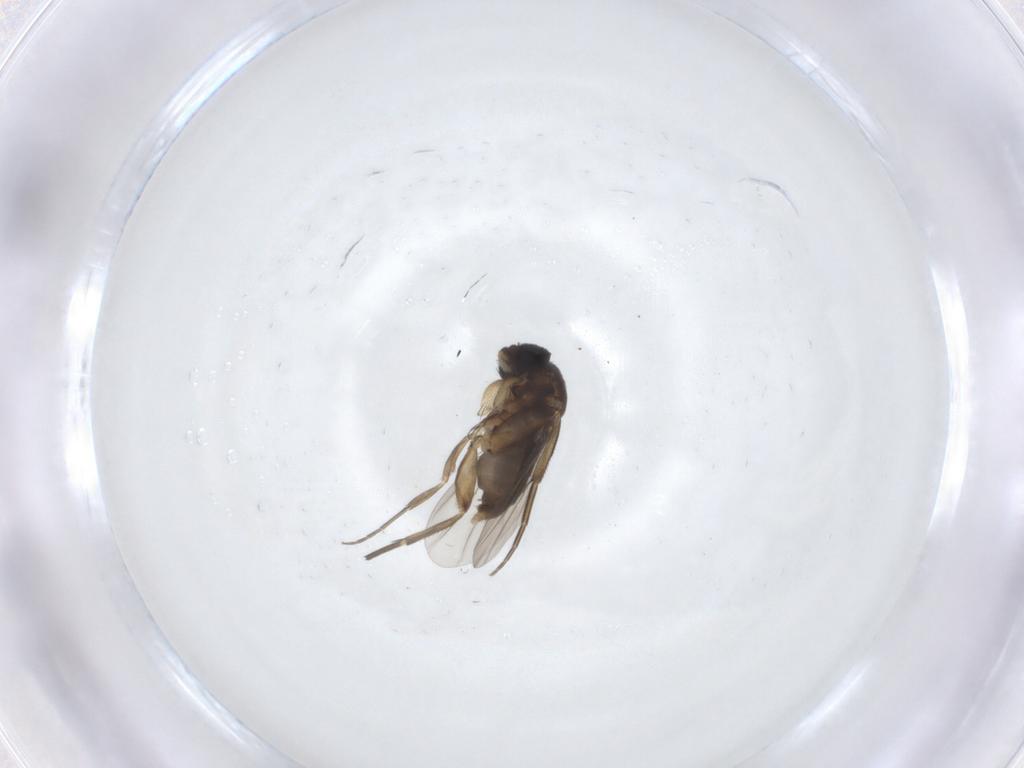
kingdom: Animalia
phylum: Arthropoda
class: Insecta
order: Diptera
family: Phoridae
